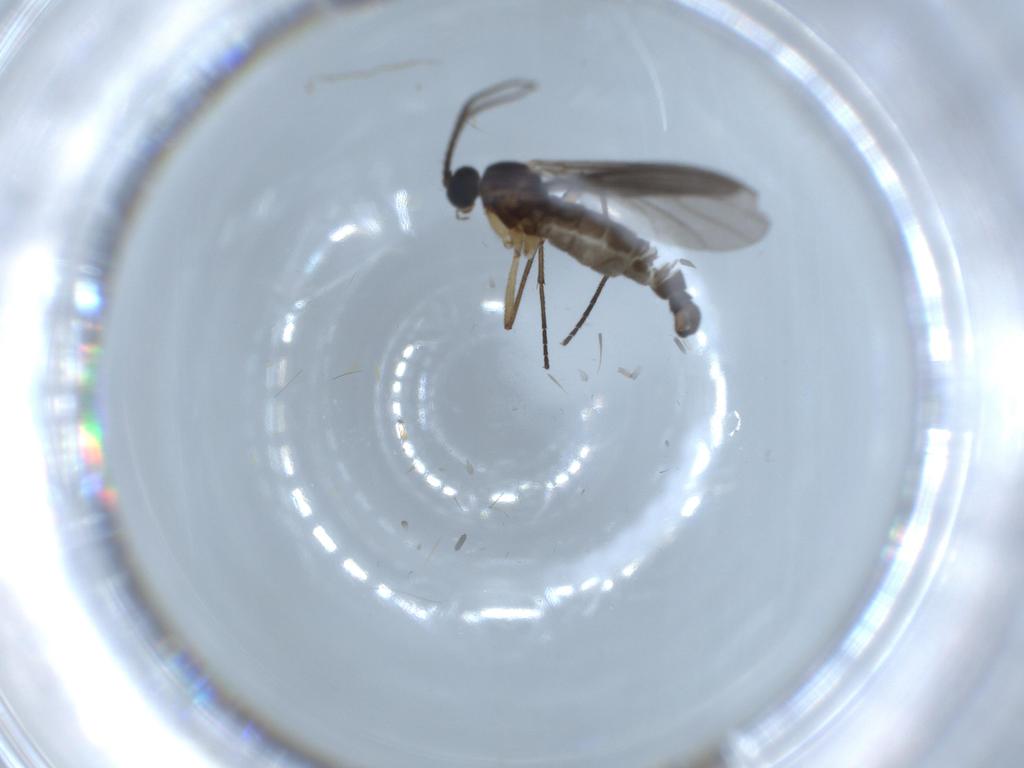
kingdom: Animalia
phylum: Arthropoda
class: Insecta
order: Diptera
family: Sciaridae
